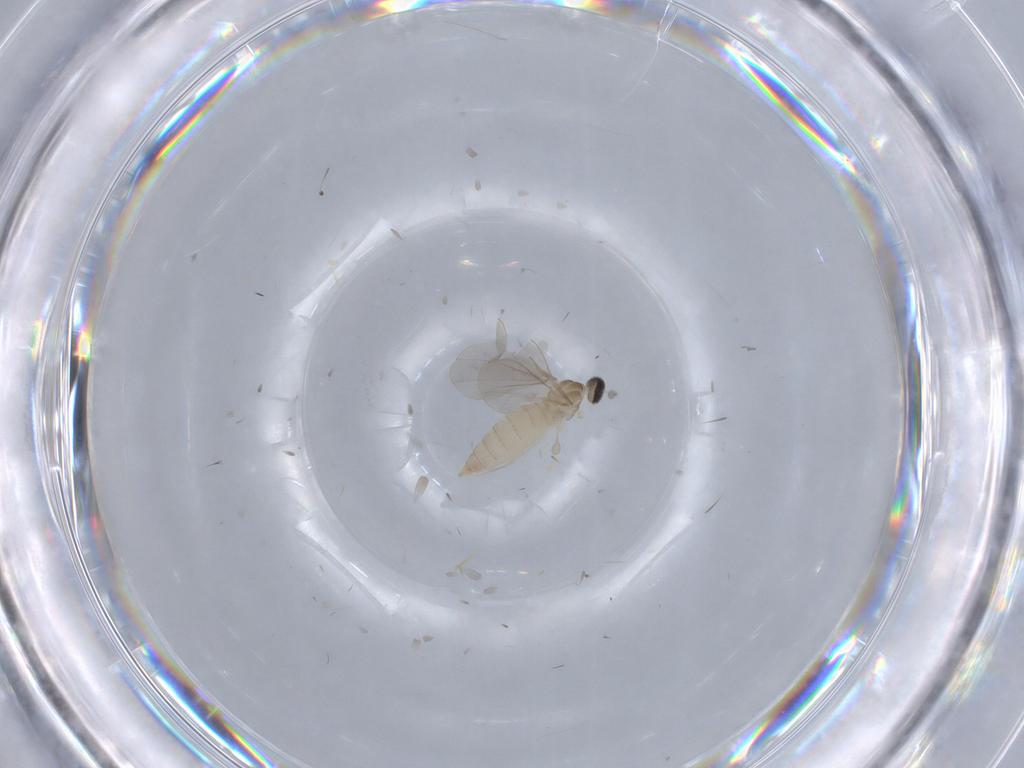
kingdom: Animalia
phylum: Arthropoda
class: Insecta
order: Diptera
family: Cecidomyiidae
